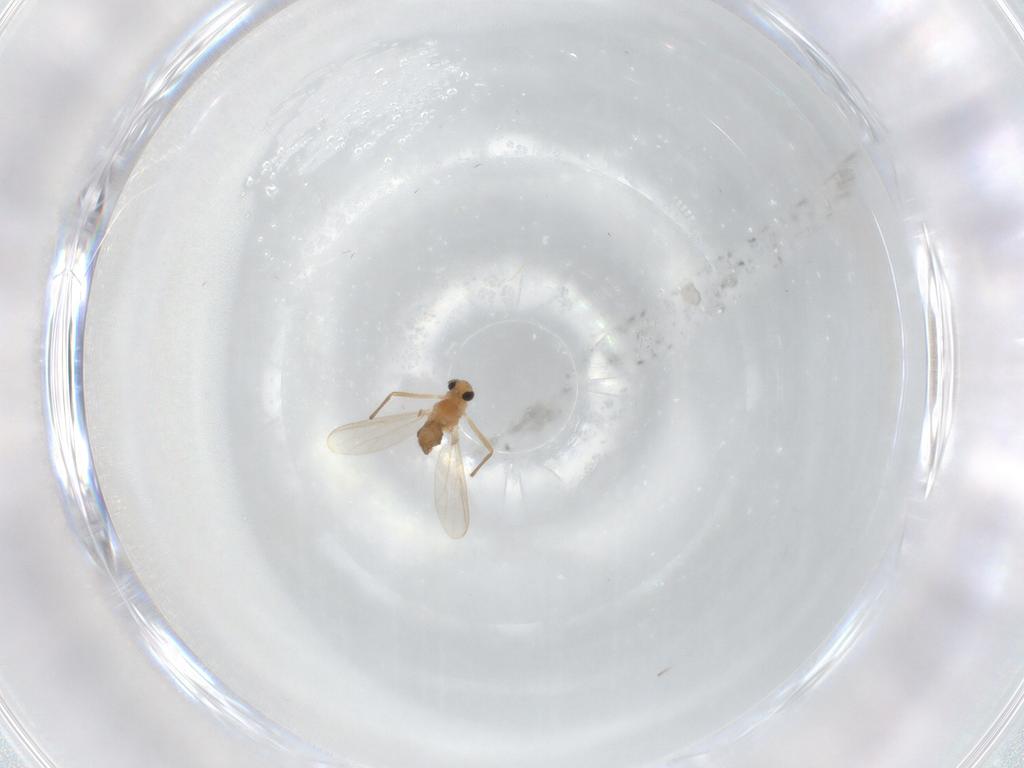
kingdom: Animalia
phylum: Arthropoda
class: Insecta
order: Diptera
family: Chironomidae
